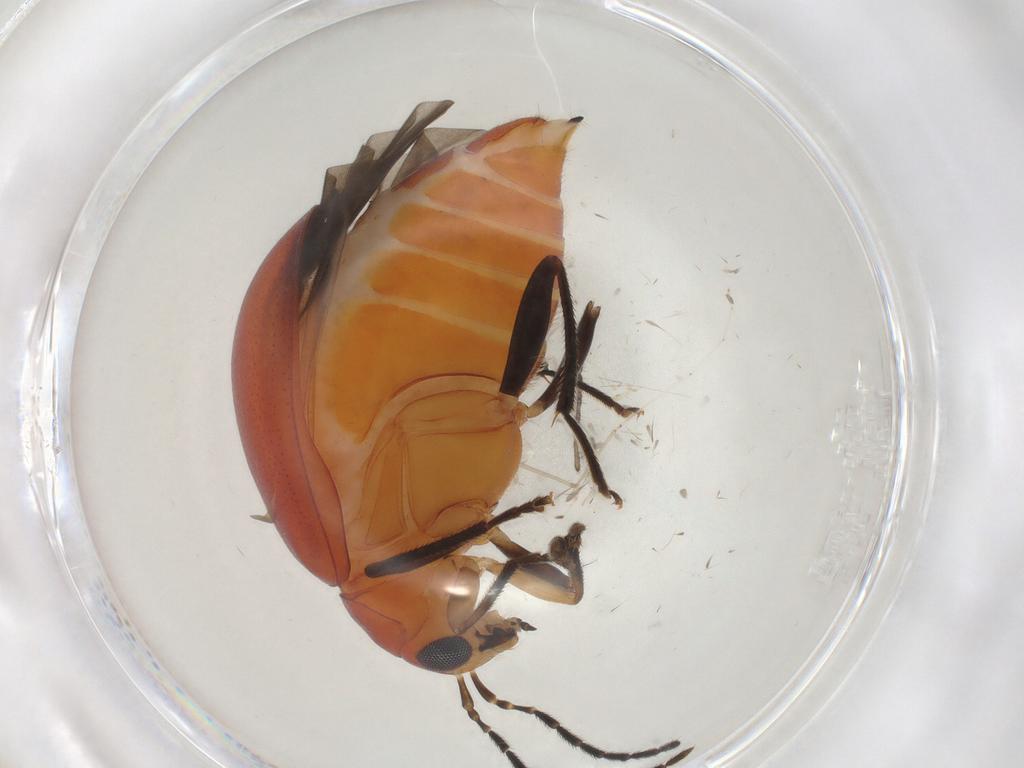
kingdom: Animalia
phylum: Arthropoda
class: Insecta
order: Coleoptera
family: Chrysomelidae
